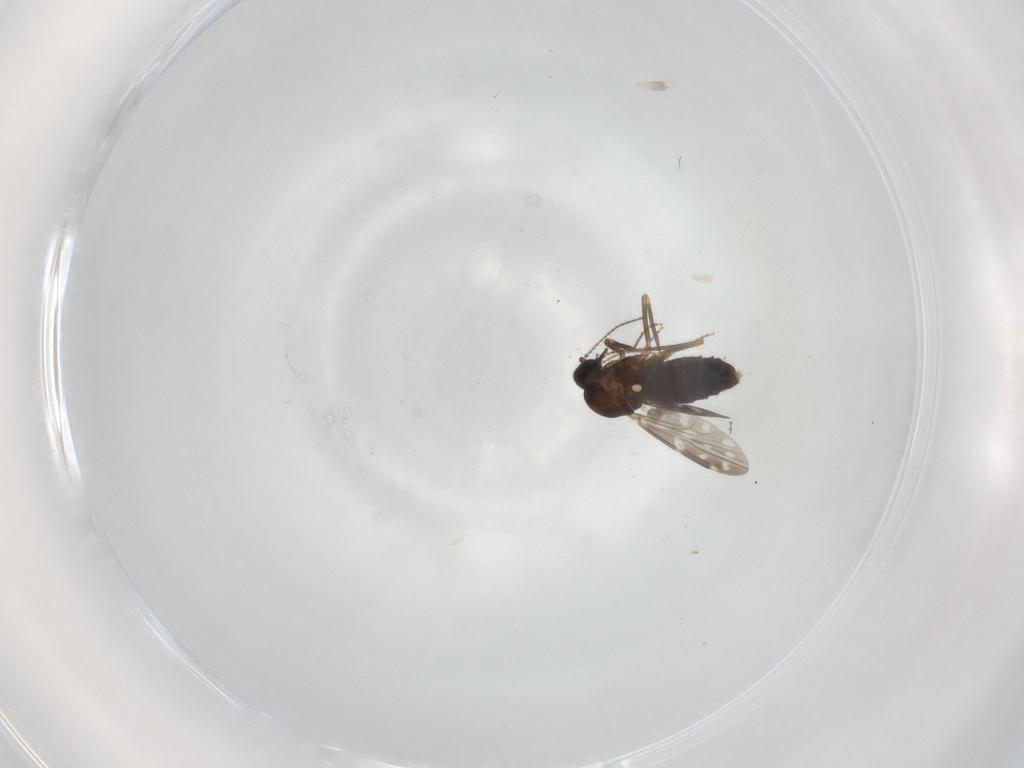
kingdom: Animalia
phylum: Arthropoda
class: Insecta
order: Diptera
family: Ceratopogonidae
